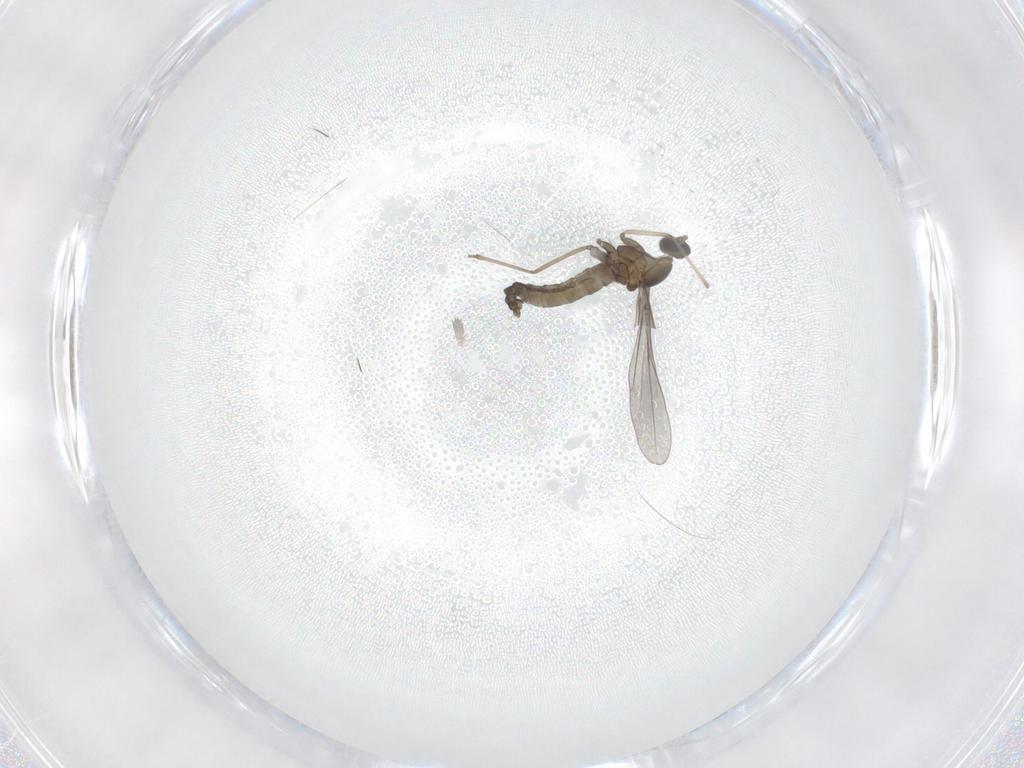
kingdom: Animalia
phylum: Arthropoda
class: Insecta
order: Diptera
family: Cecidomyiidae
